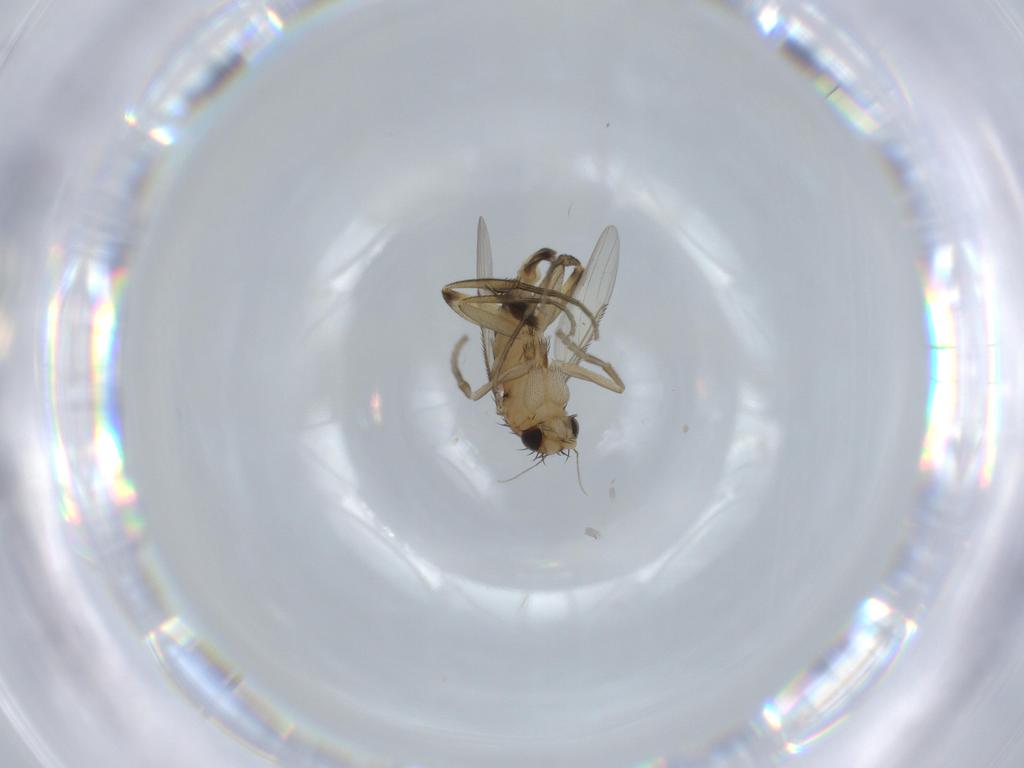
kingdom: Animalia
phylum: Arthropoda
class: Insecta
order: Diptera
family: Phoridae
